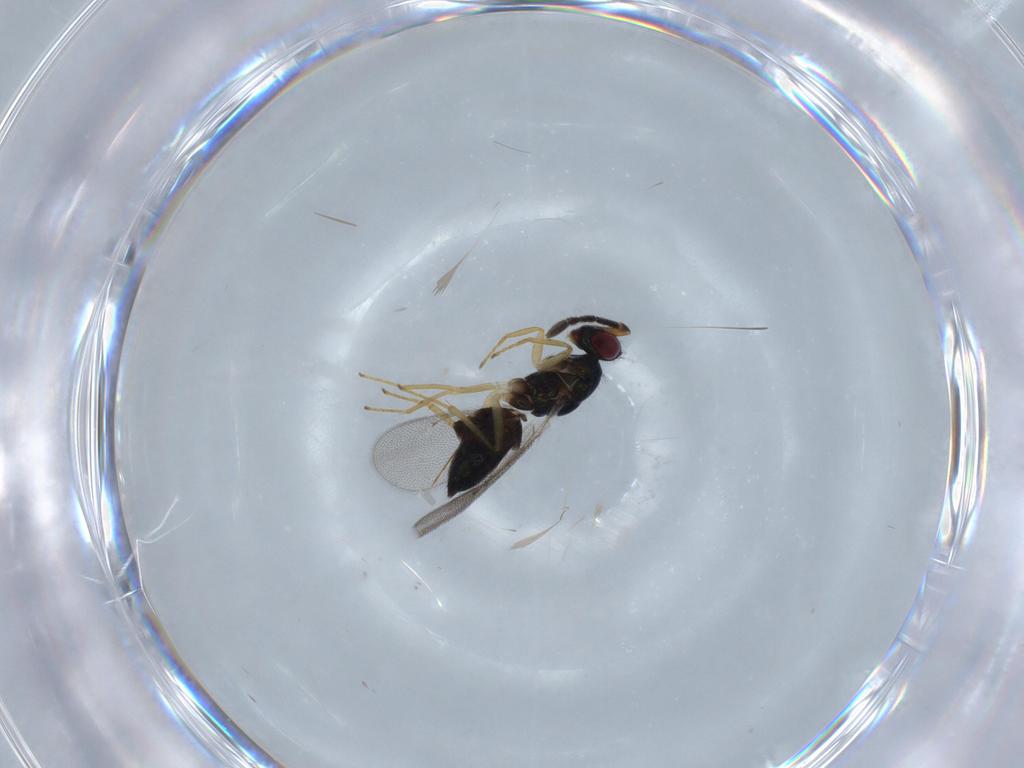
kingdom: Animalia
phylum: Arthropoda
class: Insecta
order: Hymenoptera
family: Eulophidae
